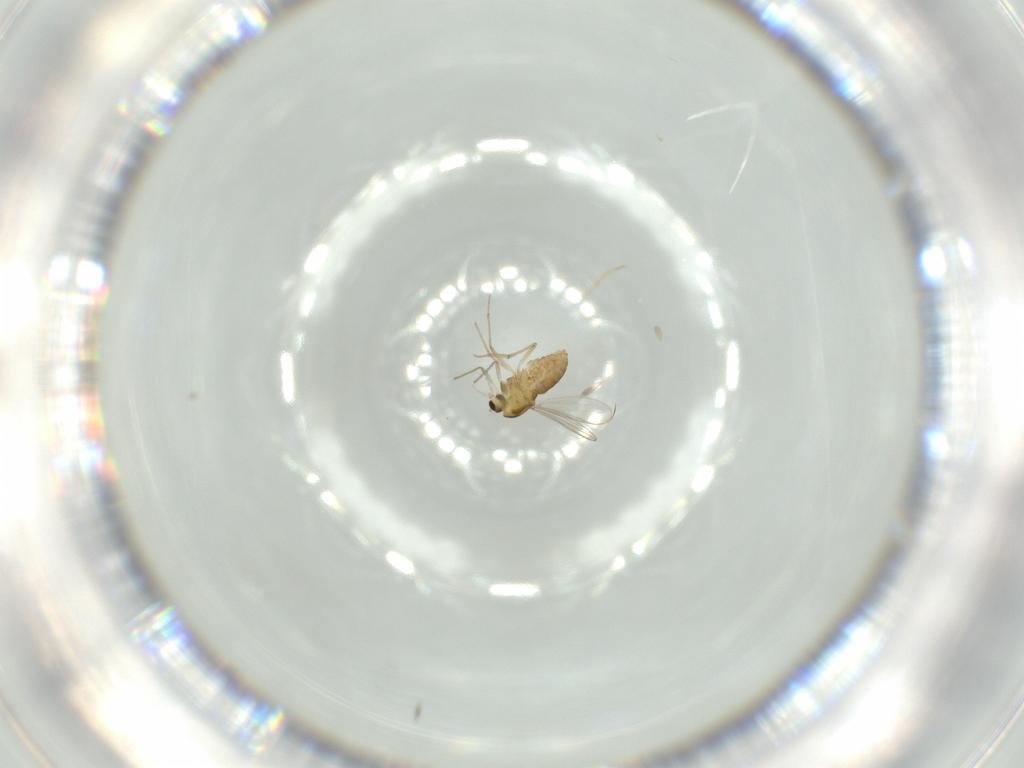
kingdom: Animalia
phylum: Arthropoda
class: Insecta
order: Diptera
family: Chironomidae
